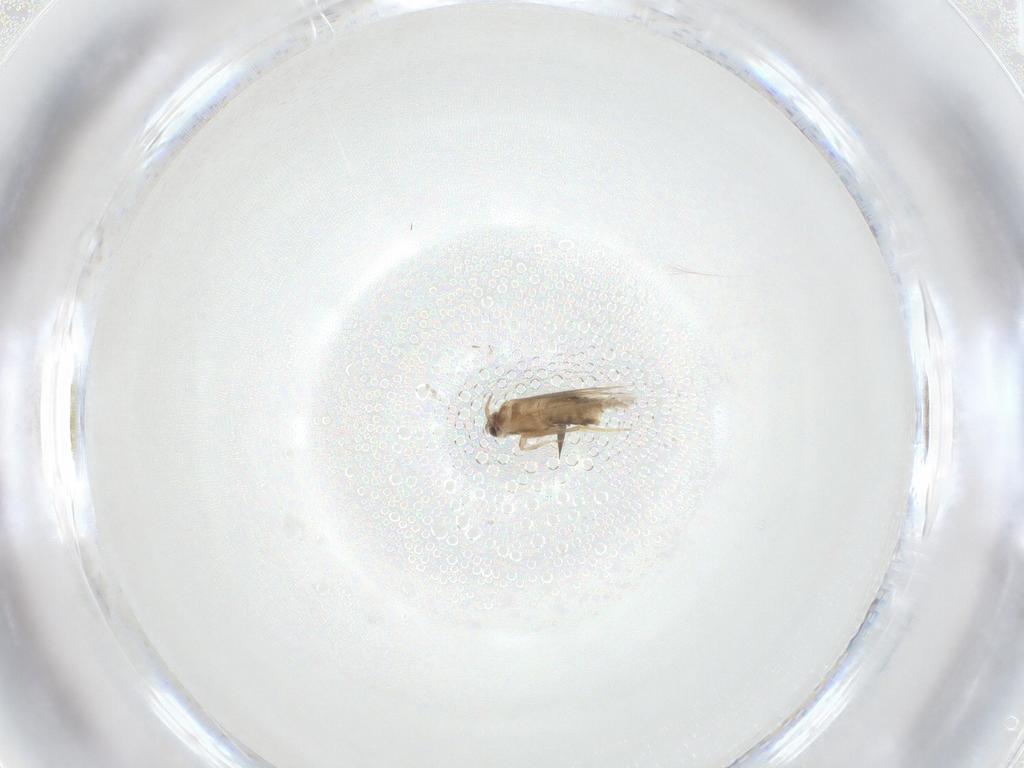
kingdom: Animalia
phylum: Arthropoda
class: Insecta
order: Lepidoptera
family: Nepticulidae
